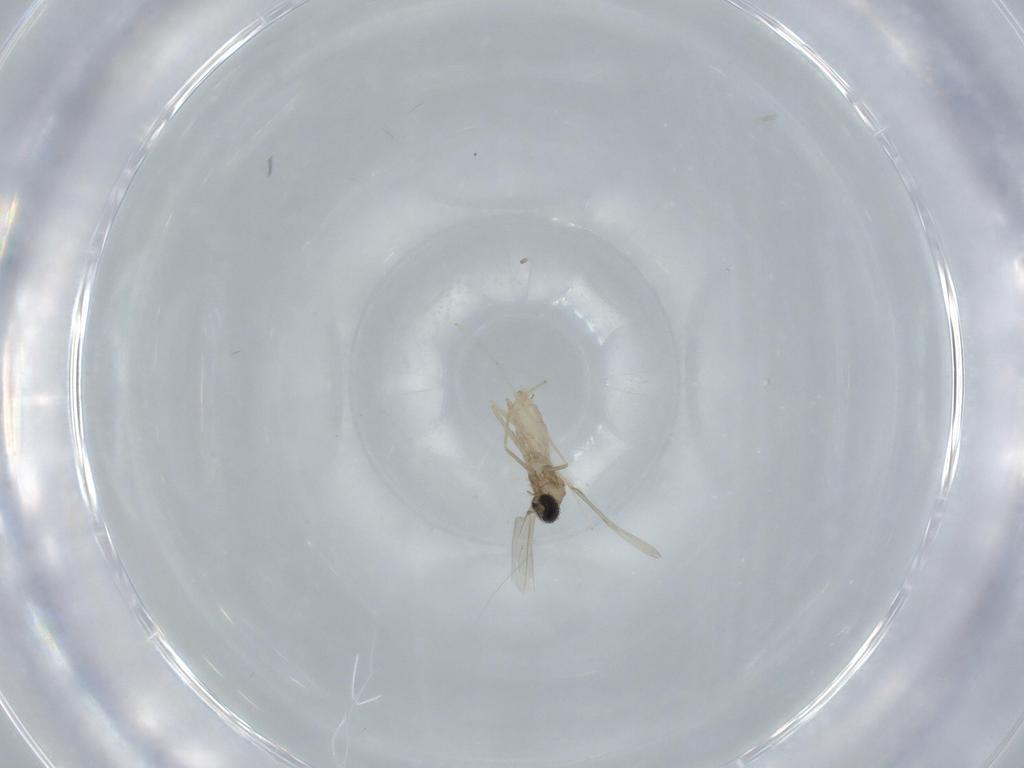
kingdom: Animalia
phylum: Arthropoda
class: Insecta
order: Diptera
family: Cecidomyiidae
